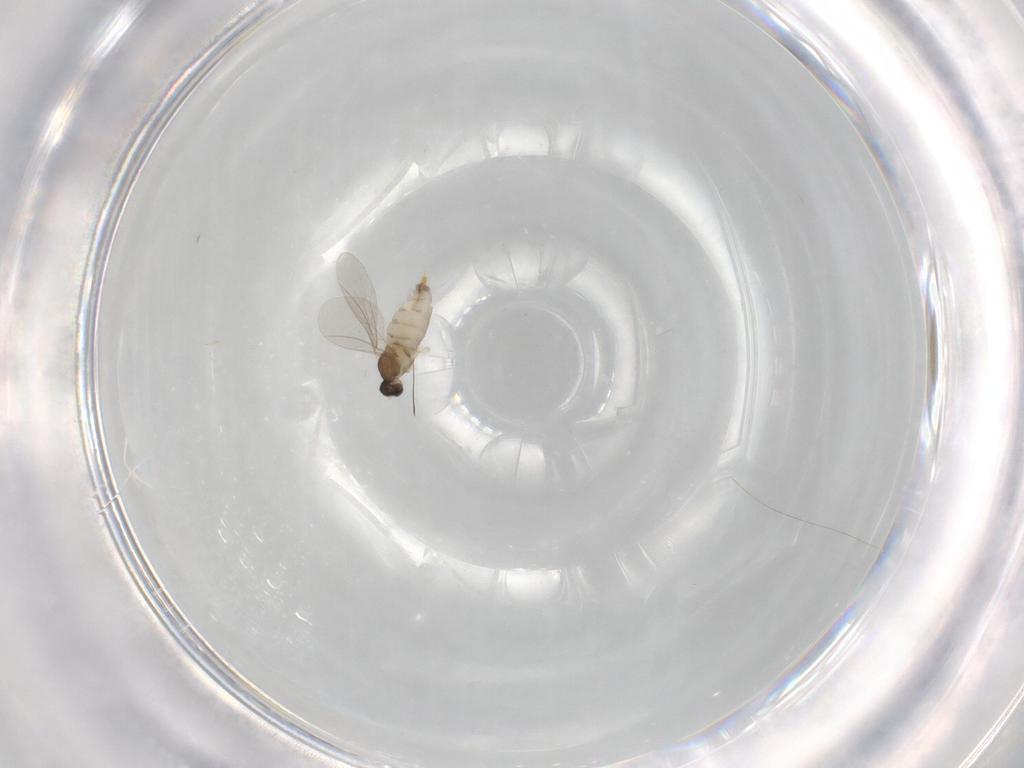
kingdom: Animalia
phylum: Arthropoda
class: Insecta
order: Diptera
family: Cecidomyiidae
